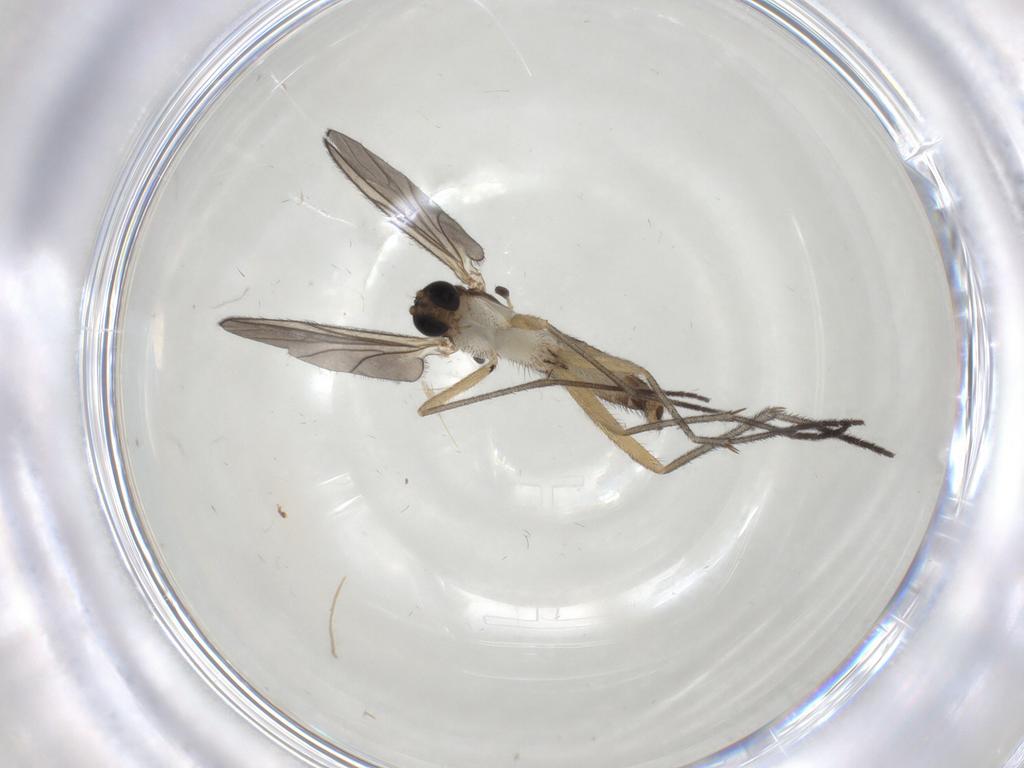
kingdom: Animalia
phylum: Arthropoda
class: Insecta
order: Diptera
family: Sciaridae
